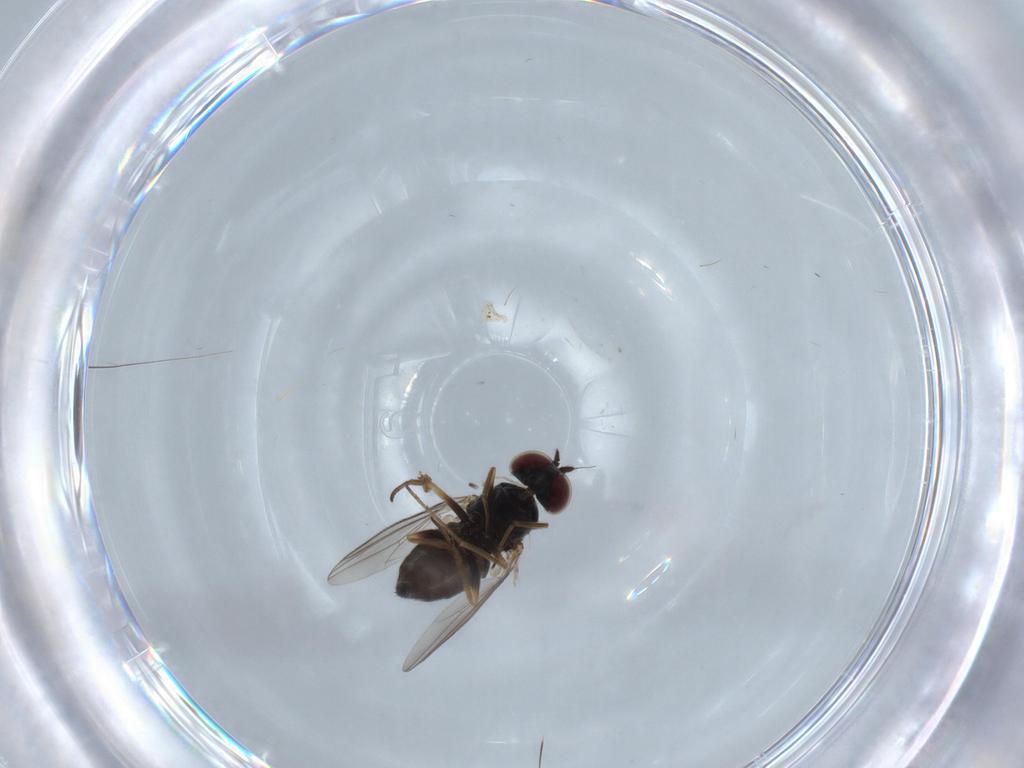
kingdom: Animalia
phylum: Arthropoda
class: Insecta
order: Diptera
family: Dolichopodidae
